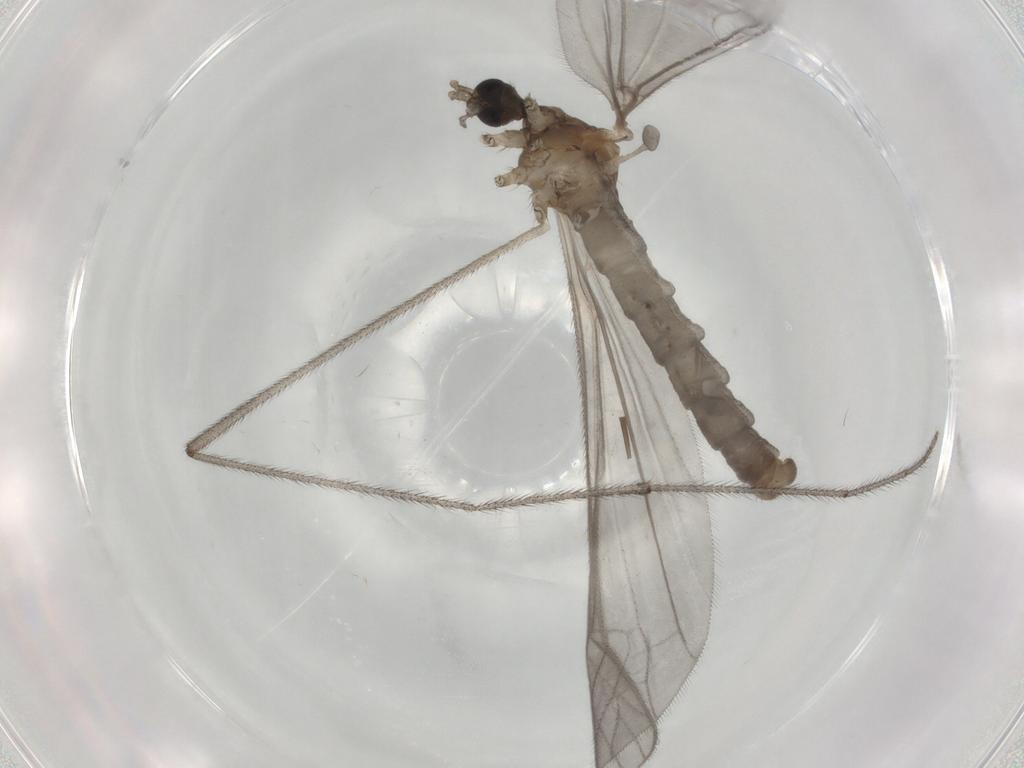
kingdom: Animalia
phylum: Arthropoda
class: Insecta
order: Diptera
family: Limoniidae
